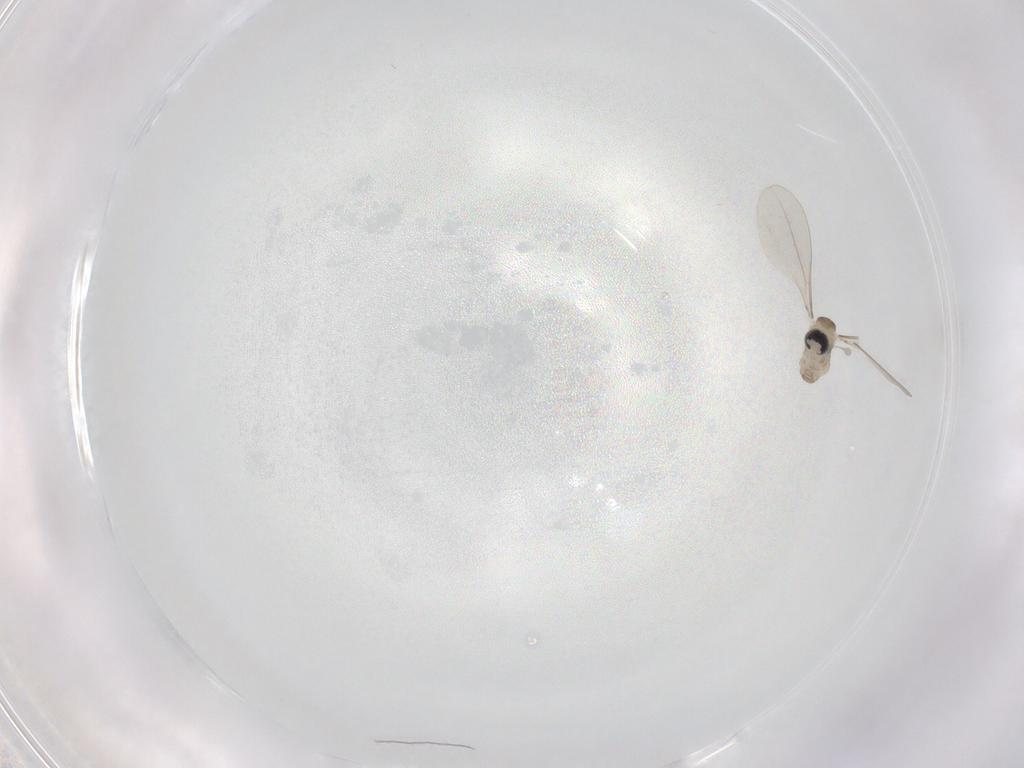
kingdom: Animalia
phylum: Arthropoda
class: Insecta
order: Diptera
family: Cecidomyiidae
